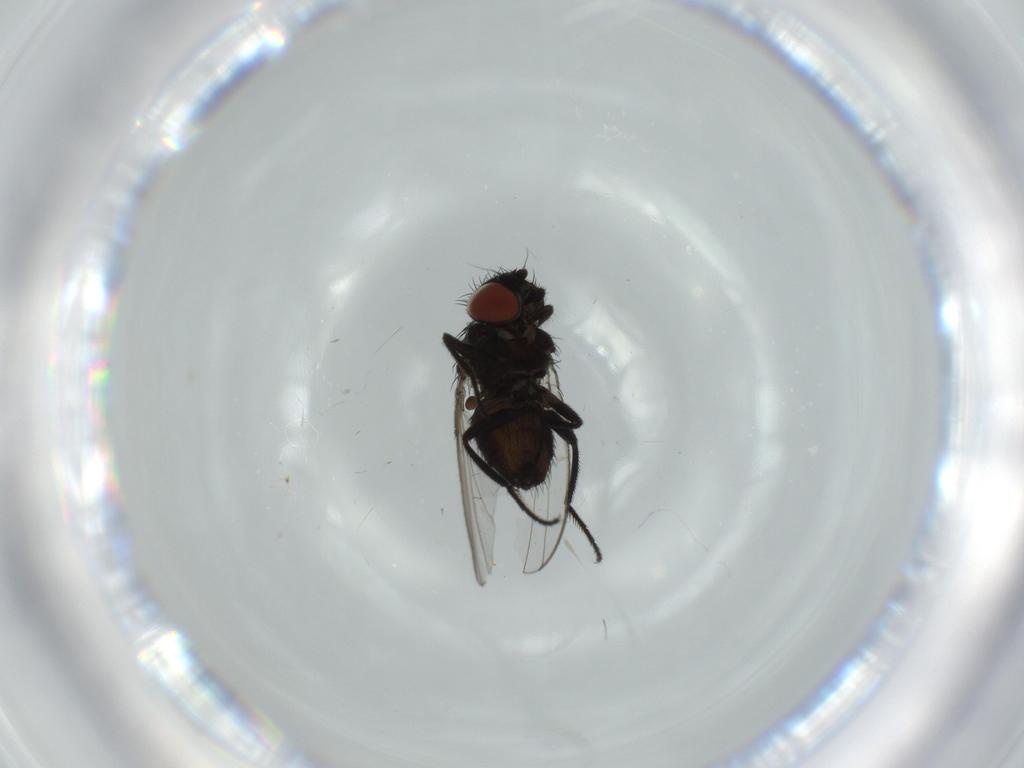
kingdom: Animalia
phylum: Arthropoda
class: Insecta
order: Diptera
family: Milichiidae
